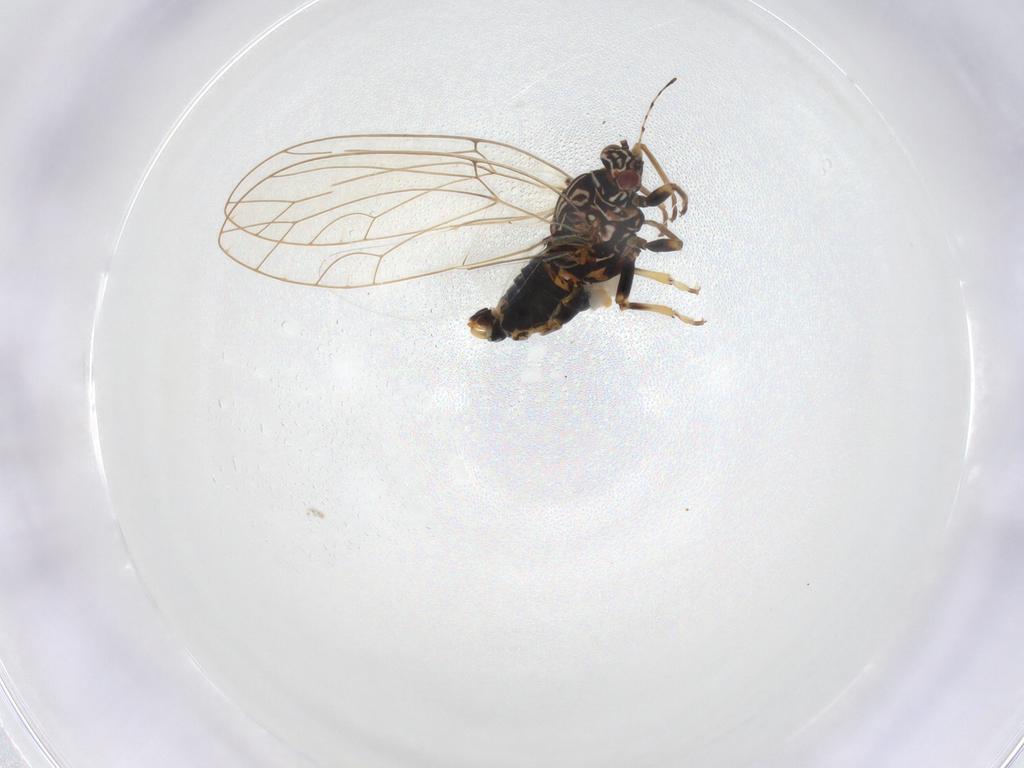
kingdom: Animalia
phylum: Arthropoda
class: Insecta
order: Hemiptera
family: Triozidae
